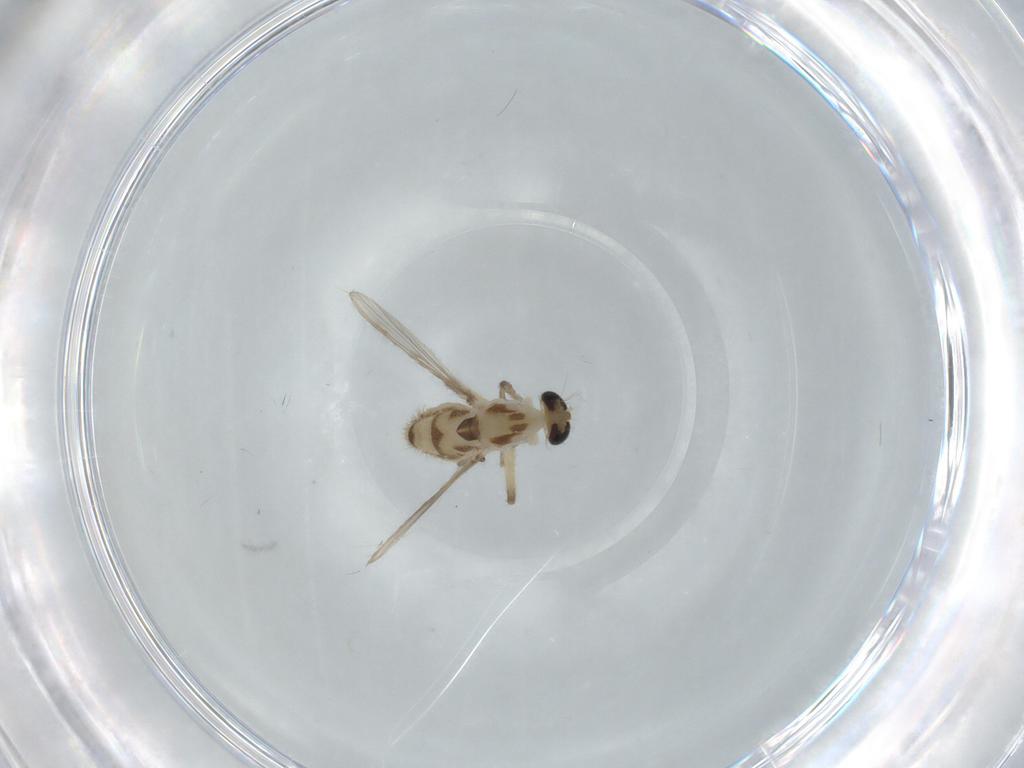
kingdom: Animalia
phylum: Arthropoda
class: Insecta
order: Diptera
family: Chironomidae
